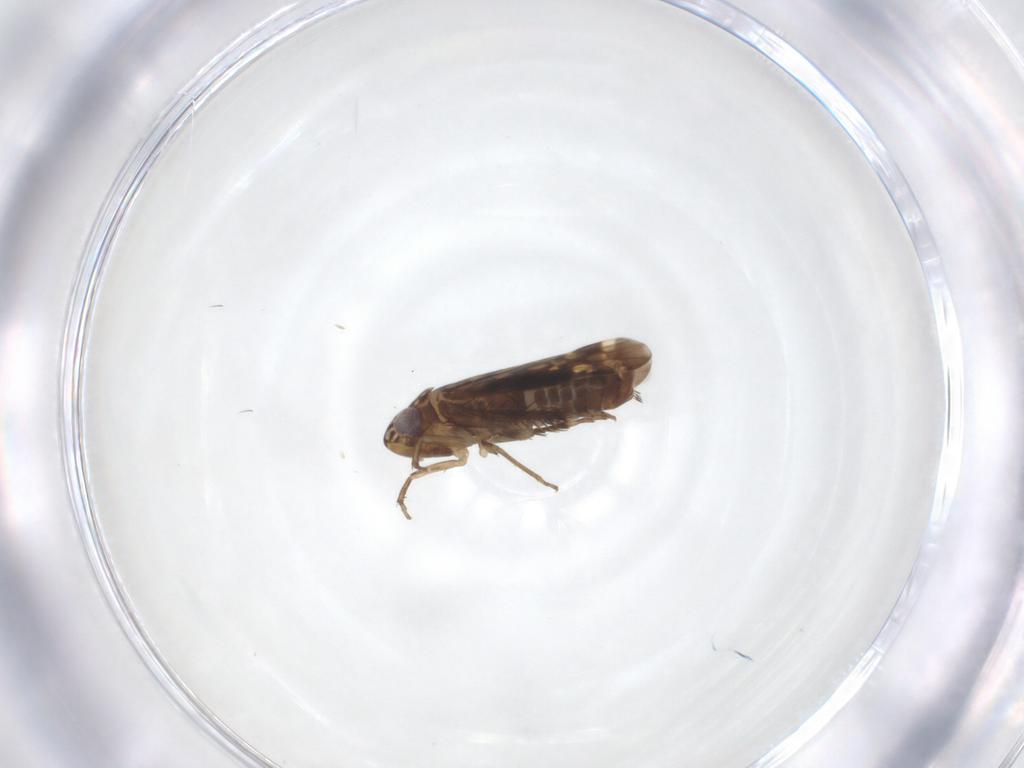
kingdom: Animalia
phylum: Arthropoda
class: Insecta
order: Hemiptera
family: Cicadellidae
